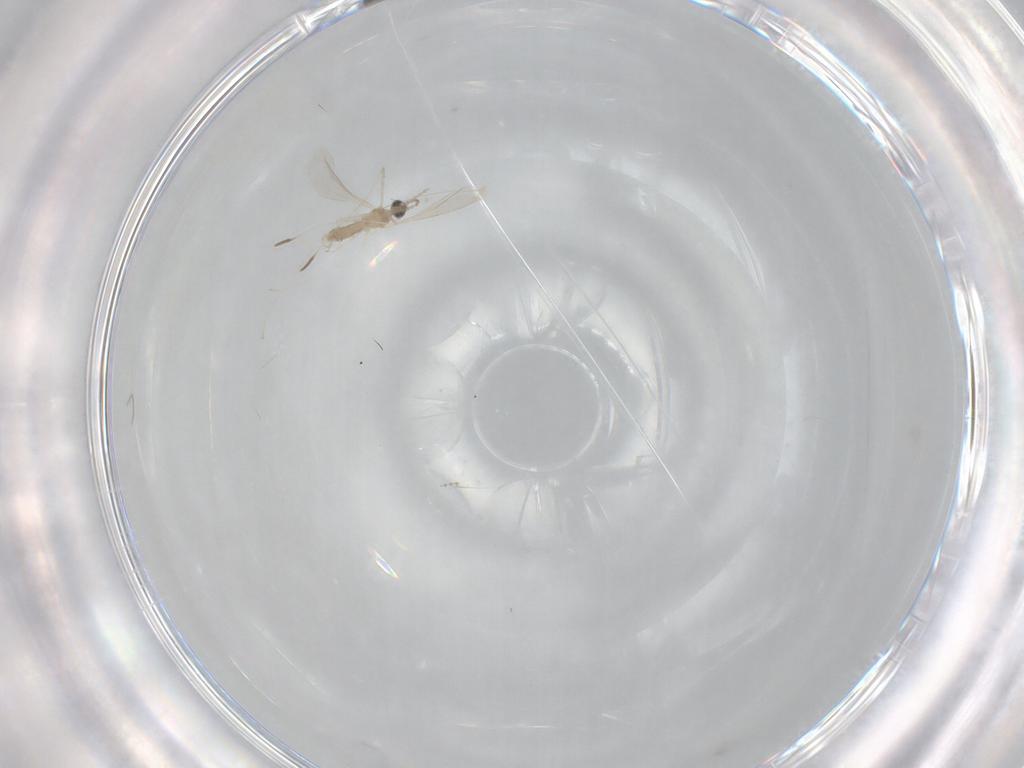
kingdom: Animalia
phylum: Arthropoda
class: Insecta
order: Diptera
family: Cecidomyiidae
